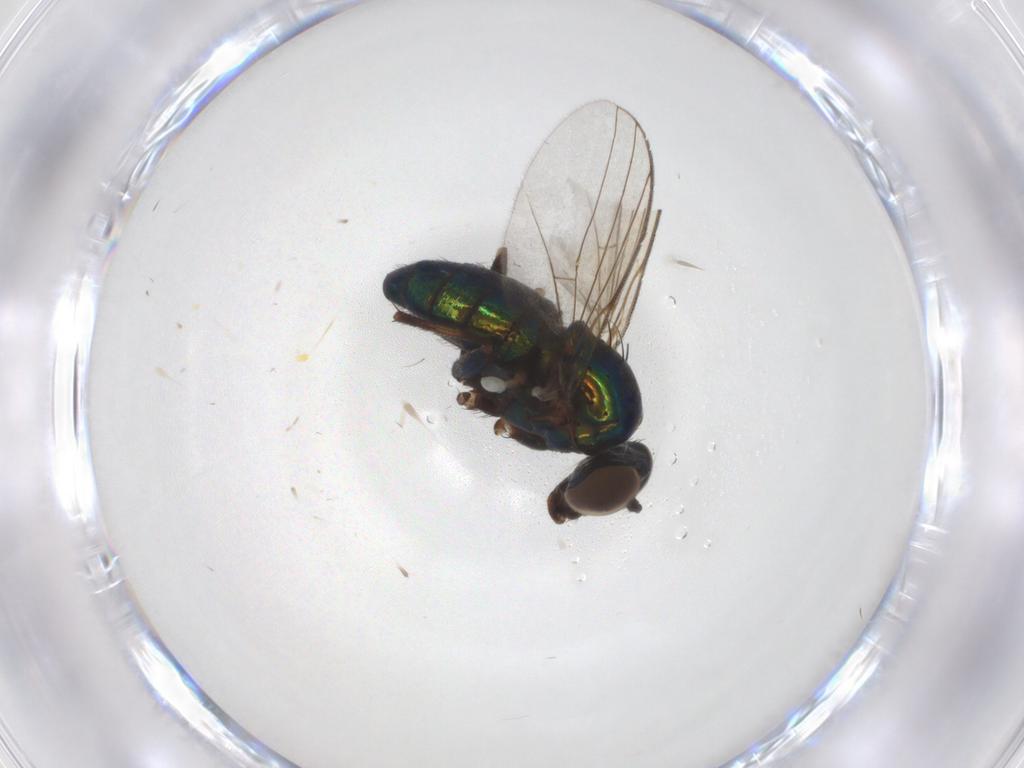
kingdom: Animalia
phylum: Arthropoda
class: Insecta
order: Diptera
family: Dolichopodidae
